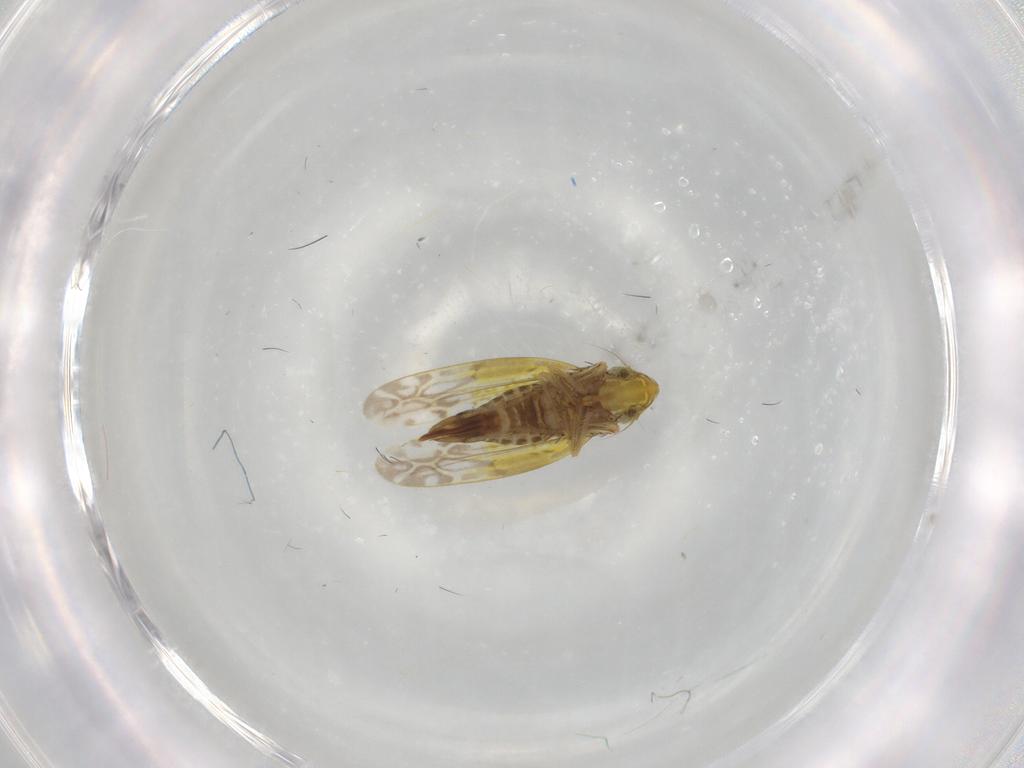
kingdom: Animalia
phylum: Arthropoda
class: Insecta
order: Hemiptera
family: Cicadellidae
